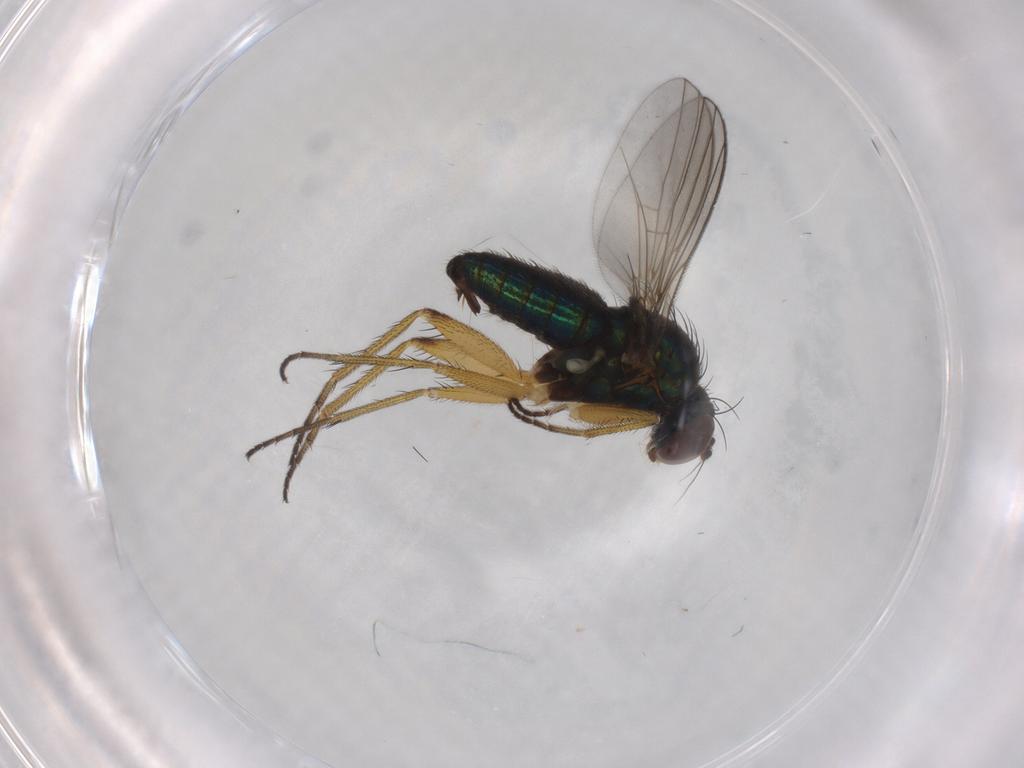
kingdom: Animalia
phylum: Arthropoda
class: Insecta
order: Diptera
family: Dolichopodidae
